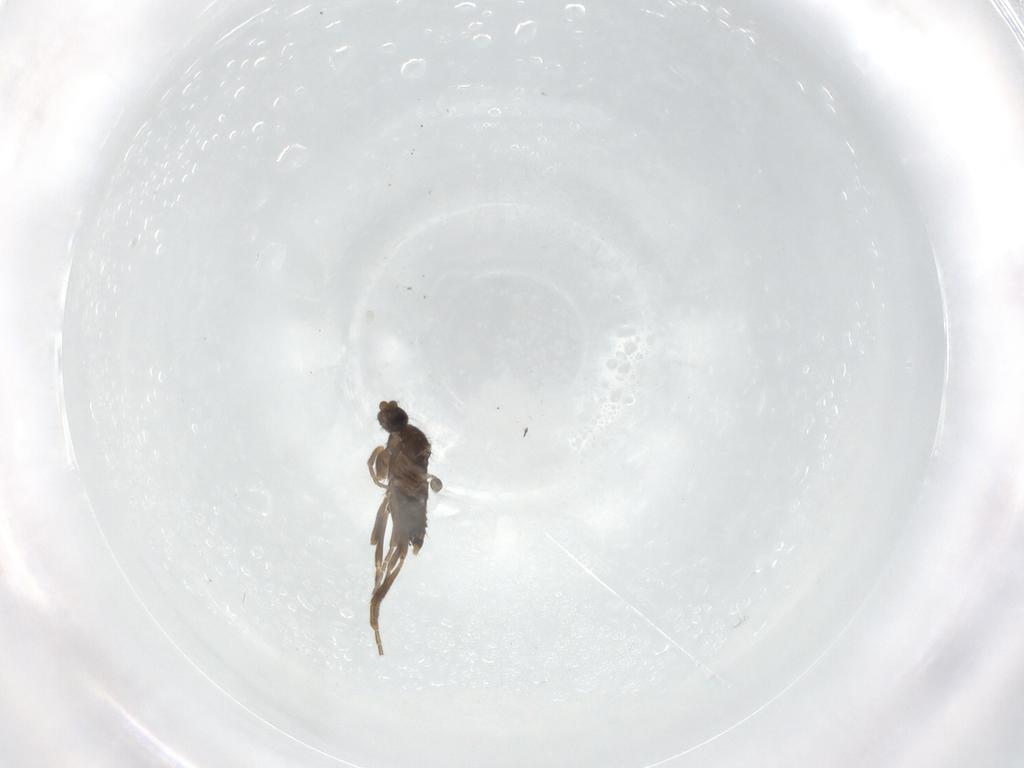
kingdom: Animalia
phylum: Arthropoda
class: Insecta
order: Diptera
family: Phoridae
